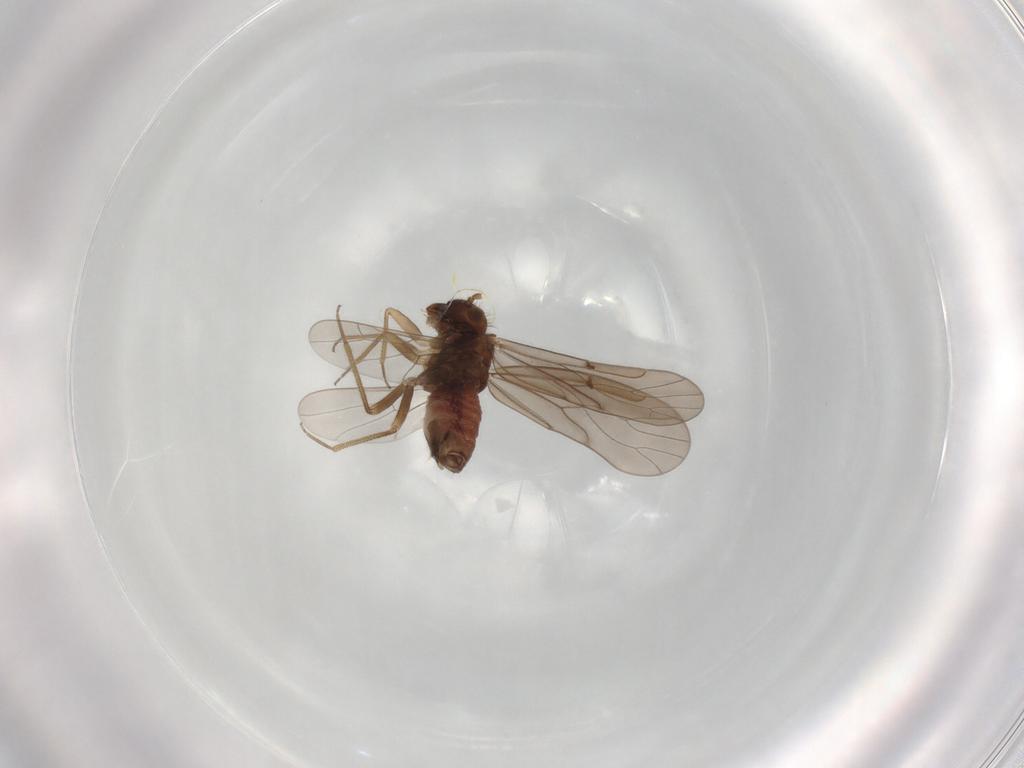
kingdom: Animalia
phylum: Arthropoda
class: Insecta
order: Psocodea
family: Ectopsocidae
